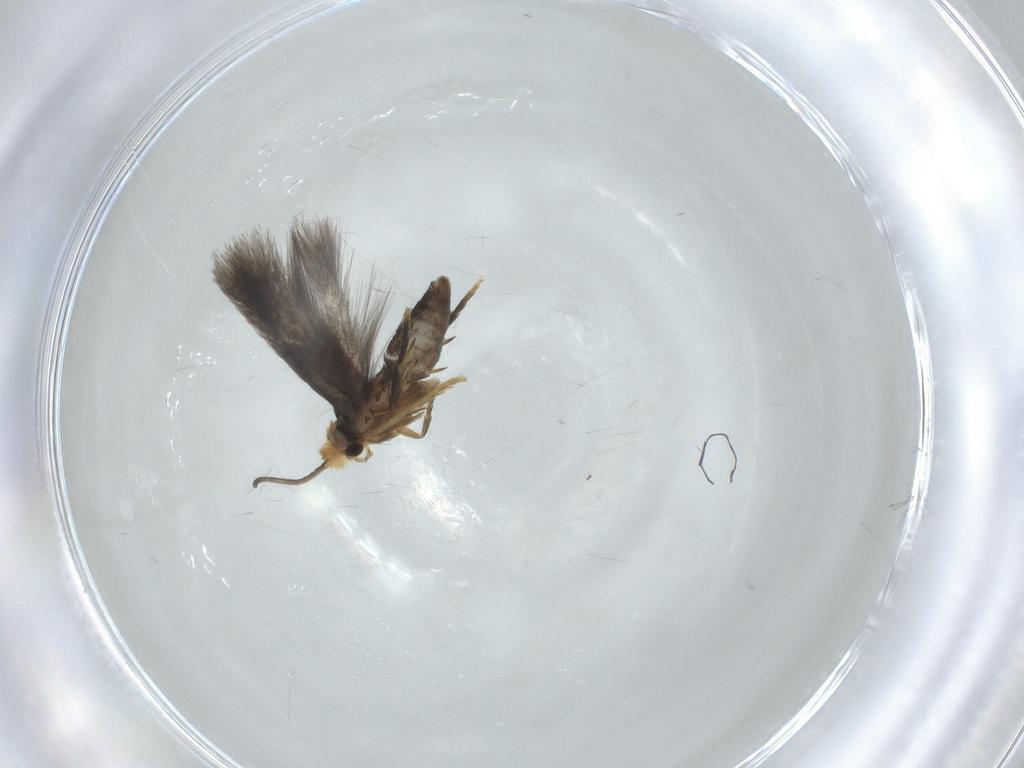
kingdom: Animalia
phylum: Arthropoda
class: Insecta
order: Lepidoptera
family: Nepticulidae
